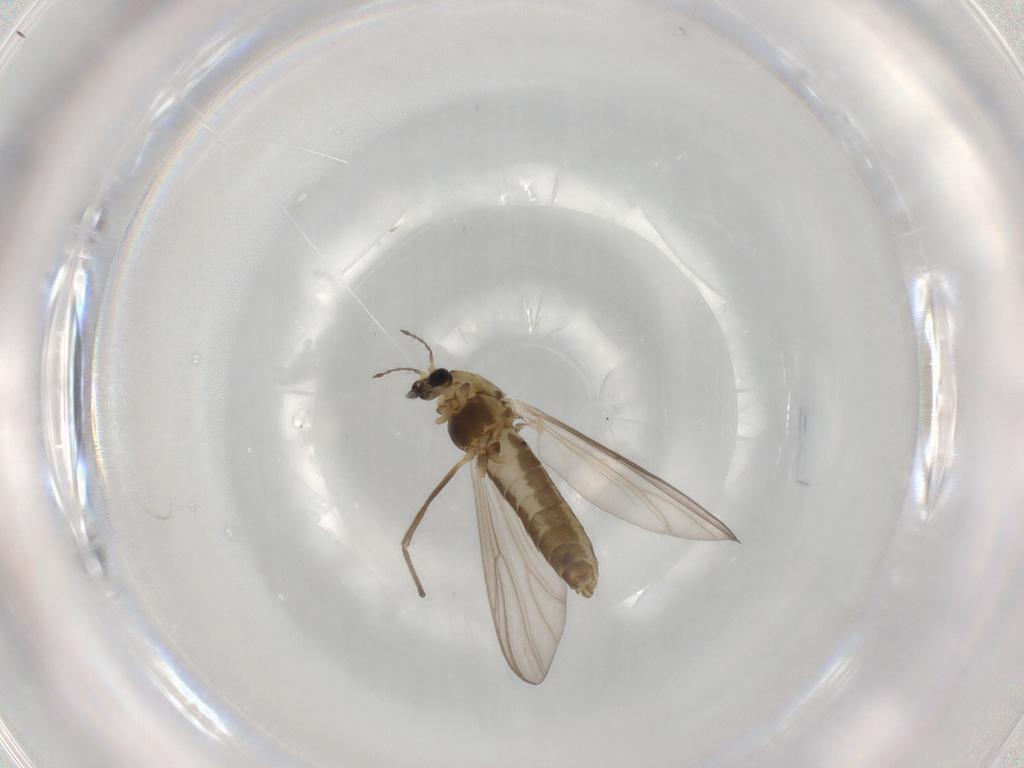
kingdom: Animalia
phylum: Arthropoda
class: Insecta
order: Diptera
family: Chironomidae
